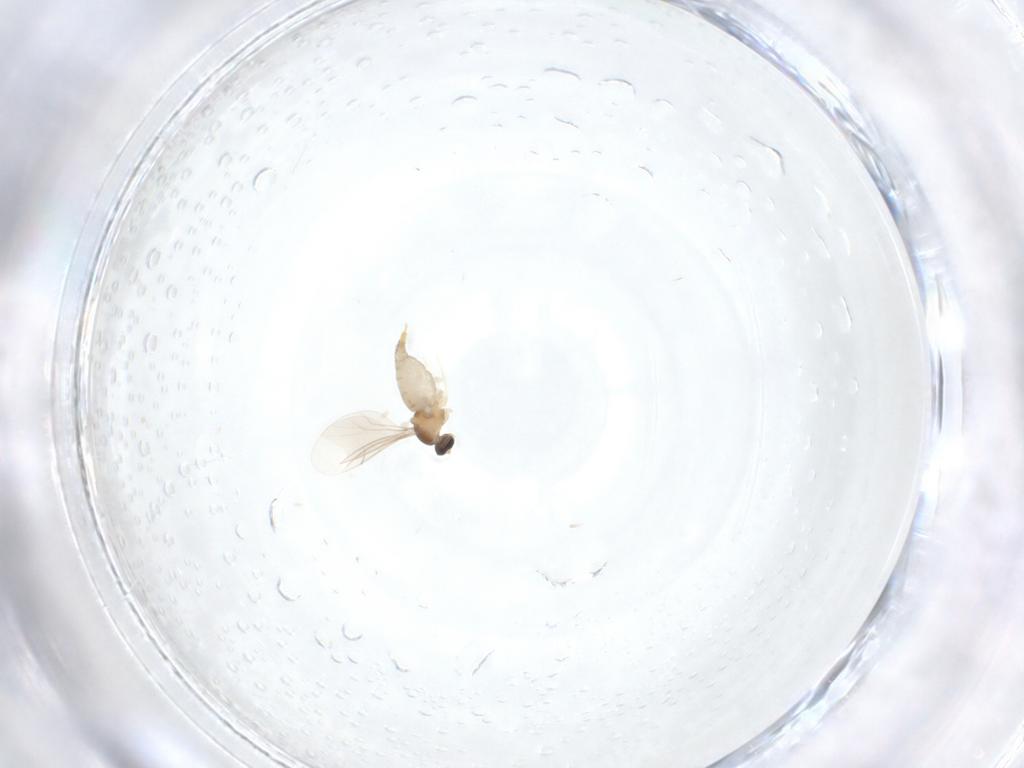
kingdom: Animalia
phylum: Arthropoda
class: Insecta
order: Diptera
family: Cecidomyiidae
